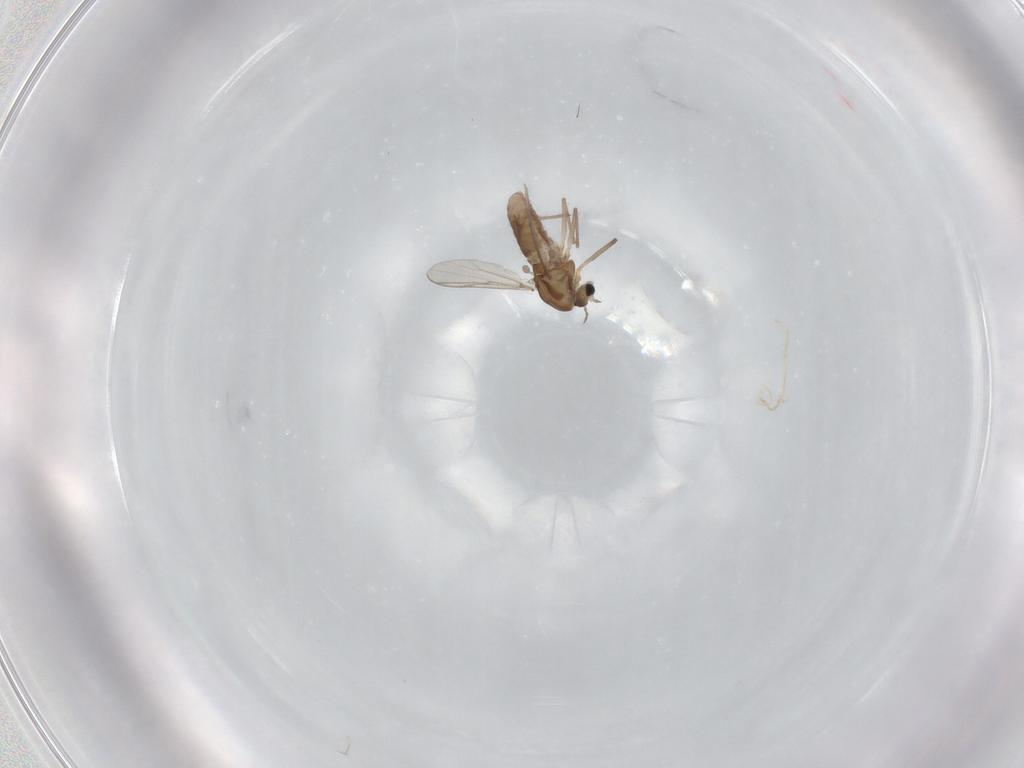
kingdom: Animalia
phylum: Arthropoda
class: Insecta
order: Diptera
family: Chironomidae
